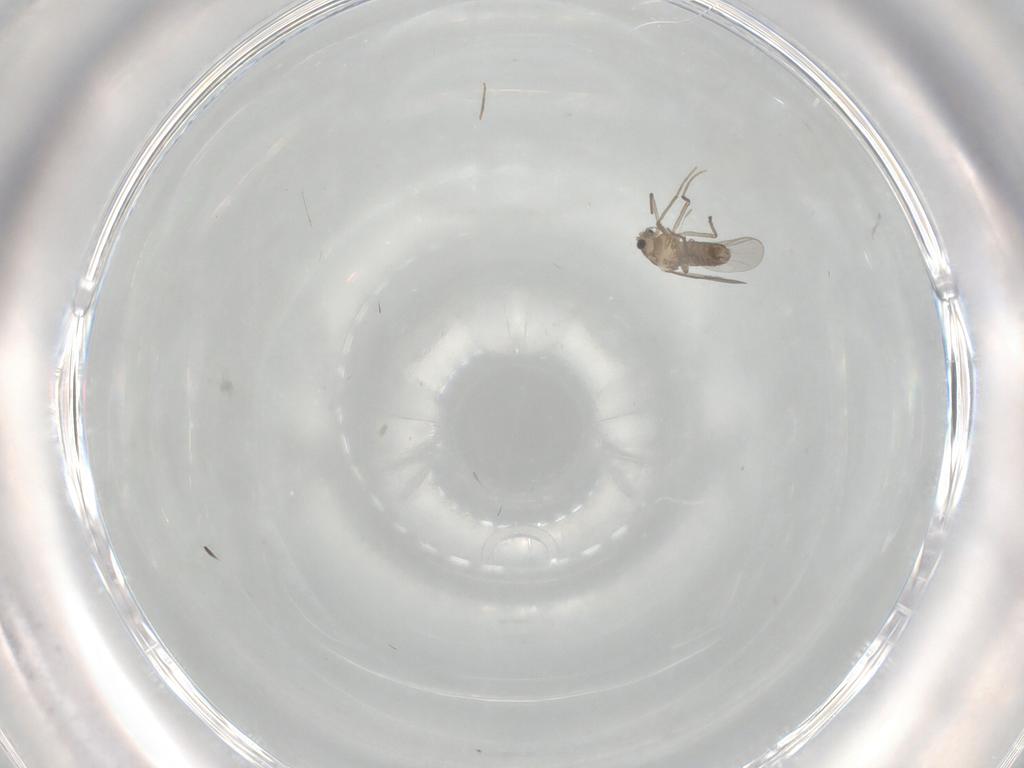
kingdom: Animalia
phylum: Arthropoda
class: Insecta
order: Diptera
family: Chironomidae
